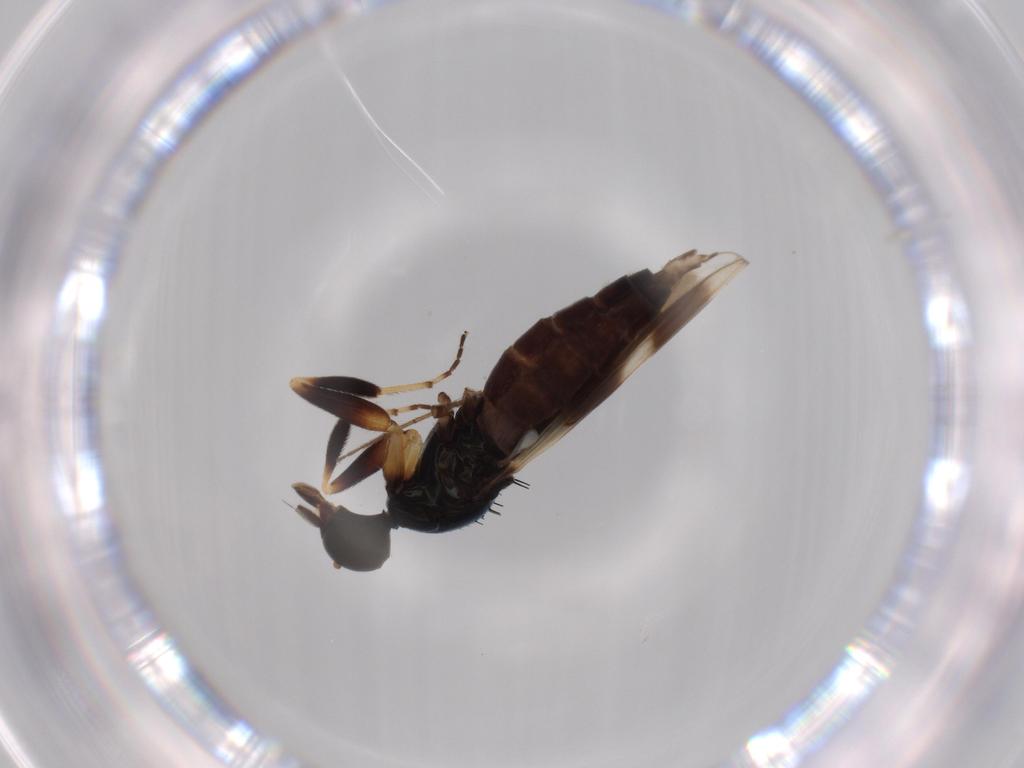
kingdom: Animalia
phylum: Arthropoda
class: Insecta
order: Diptera
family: Hybotidae
